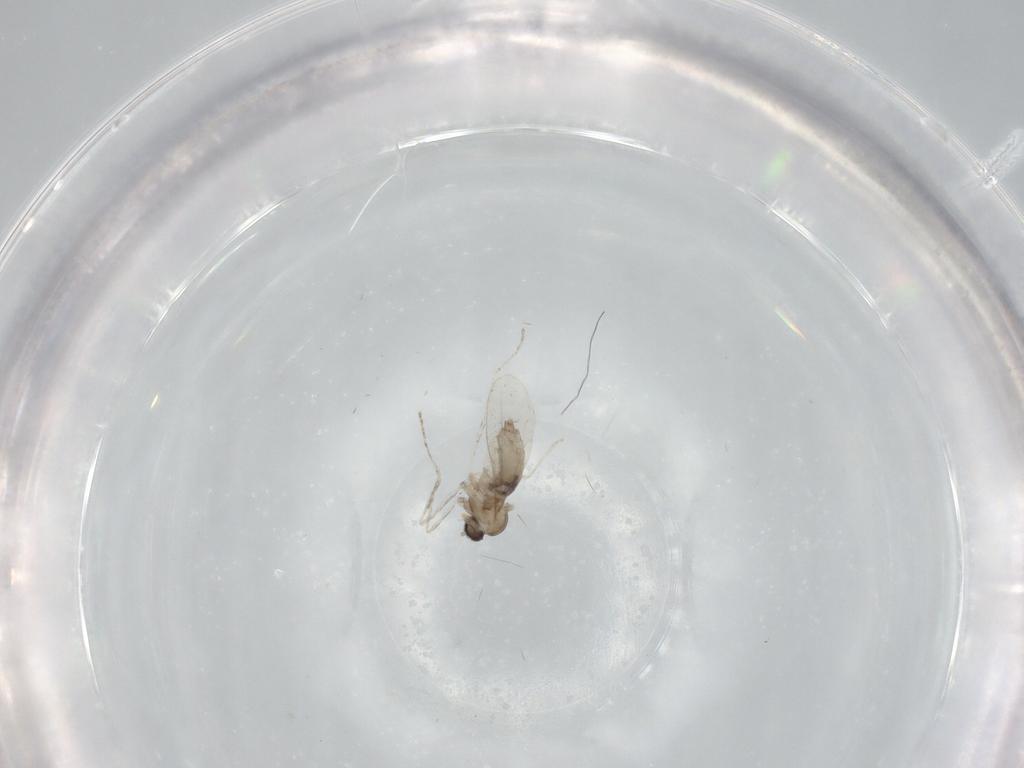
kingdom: Animalia
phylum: Arthropoda
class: Insecta
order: Diptera
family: Cecidomyiidae
